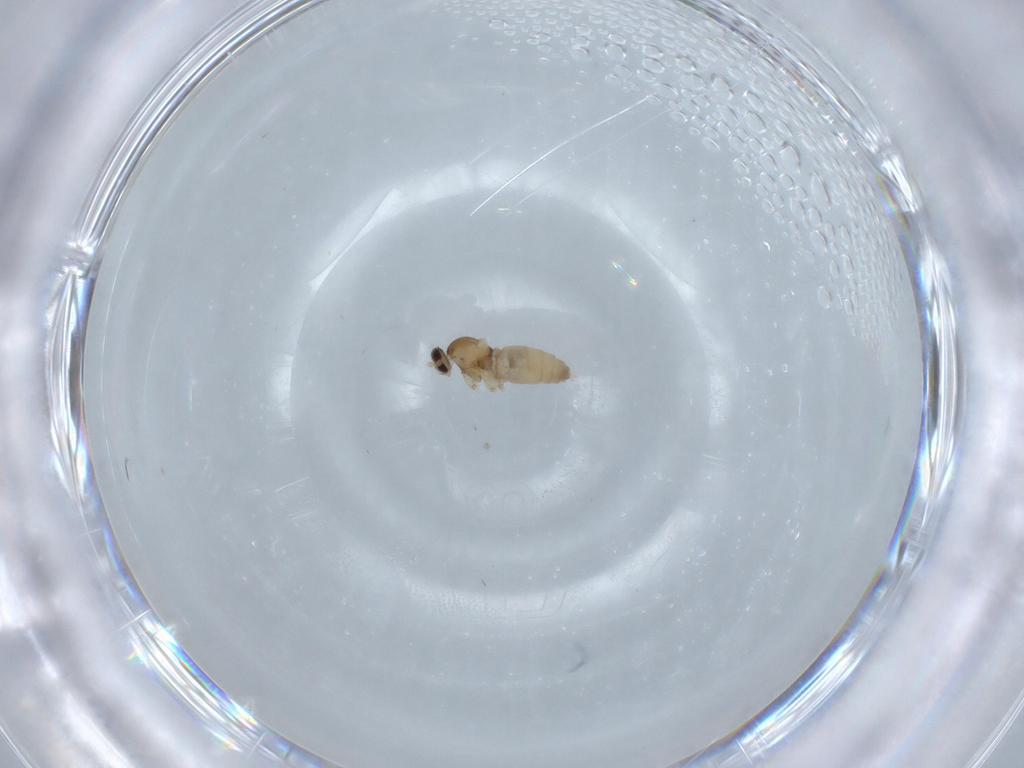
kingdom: Animalia
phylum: Arthropoda
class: Insecta
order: Diptera
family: Cecidomyiidae
